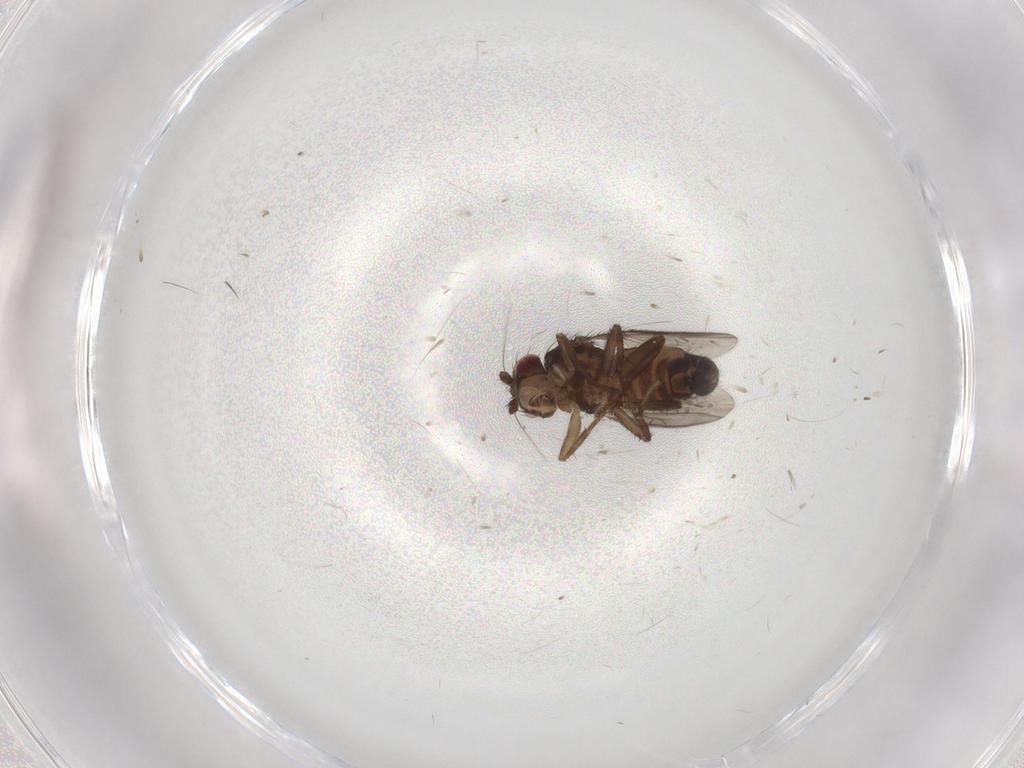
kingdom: Animalia
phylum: Arthropoda
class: Insecta
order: Diptera
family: Sphaeroceridae
